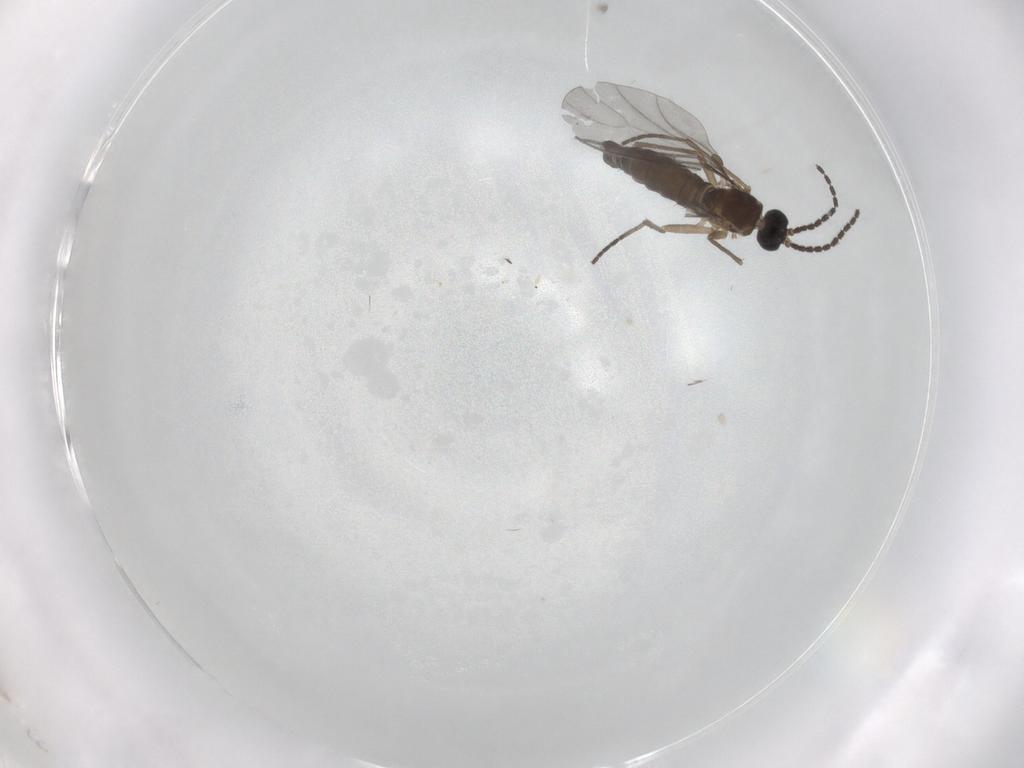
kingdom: Animalia
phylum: Arthropoda
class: Insecta
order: Diptera
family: Sciaridae
